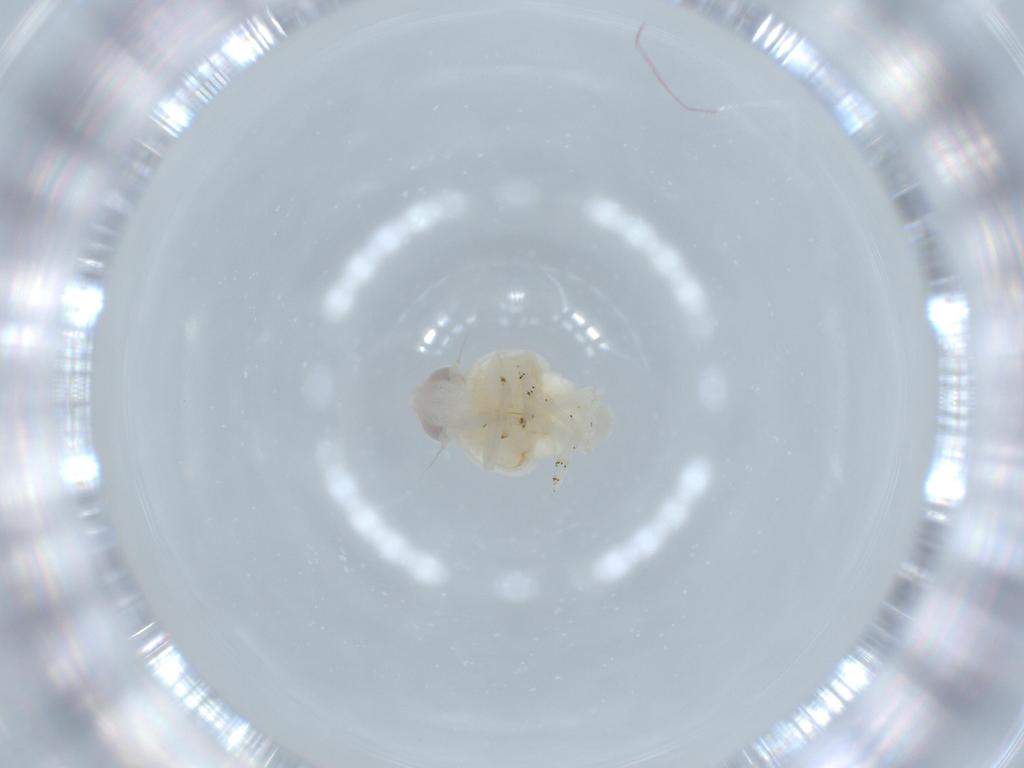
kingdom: Animalia
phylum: Arthropoda
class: Insecta
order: Hemiptera
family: Nogodinidae
